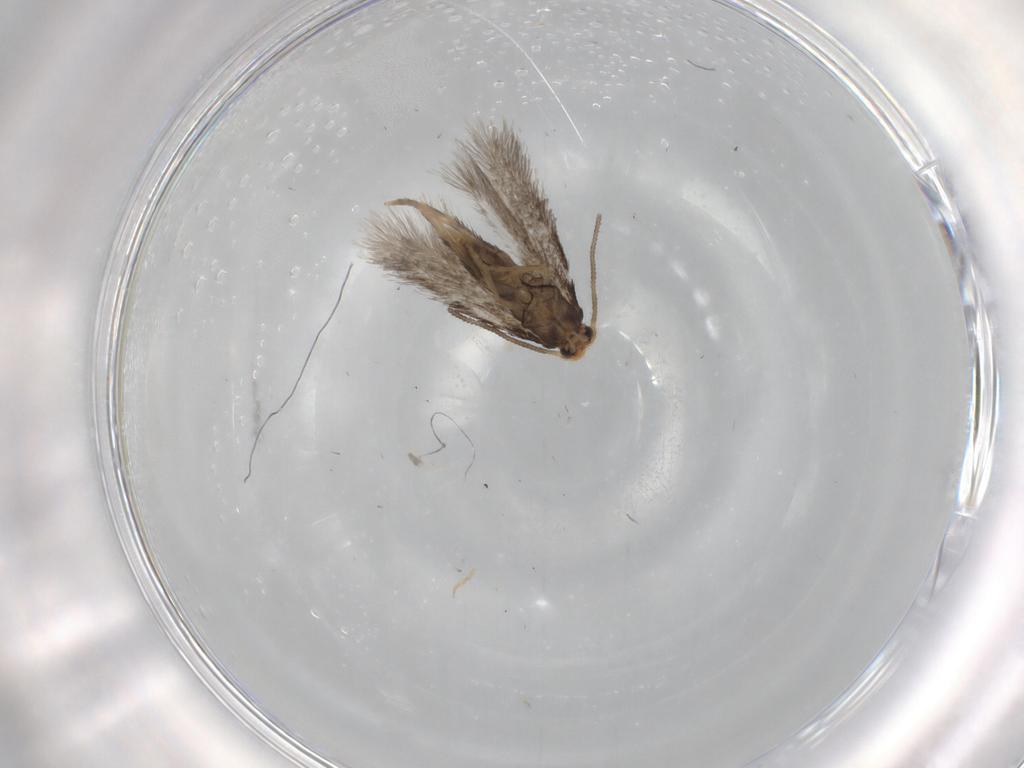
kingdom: Animalia
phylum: Arthropoda
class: Insecta
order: Lepidoptera
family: Nepticulidae
